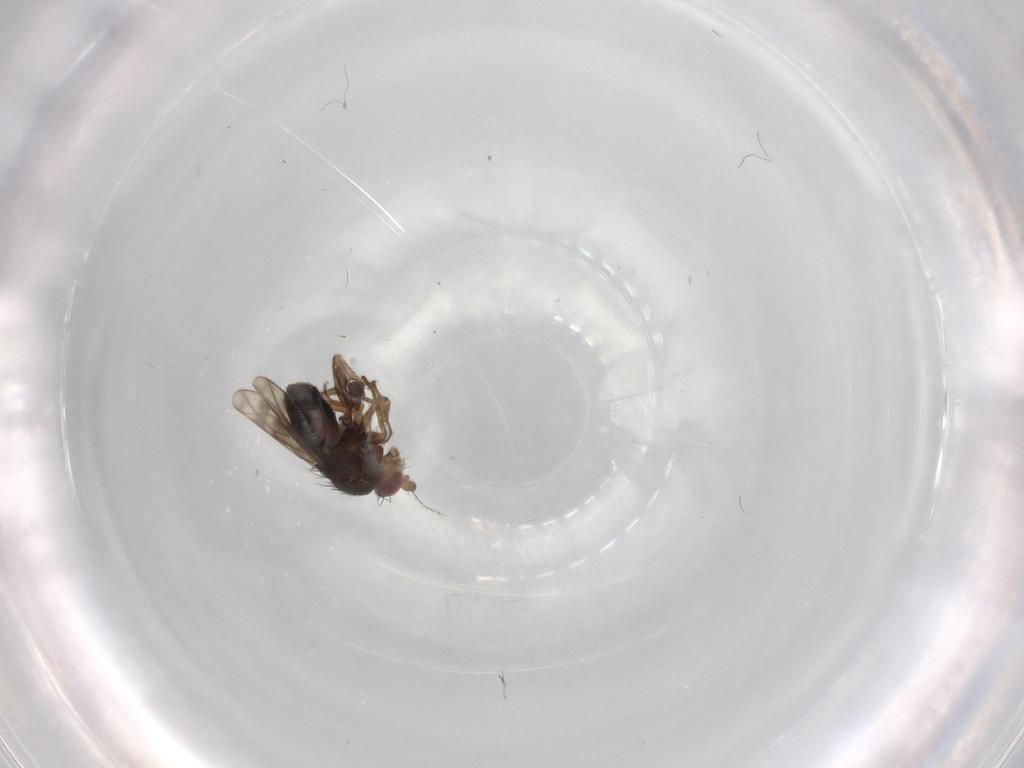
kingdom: Animalia
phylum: Arthropoda
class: Insecta
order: Diptera
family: Sphaeroceridae
